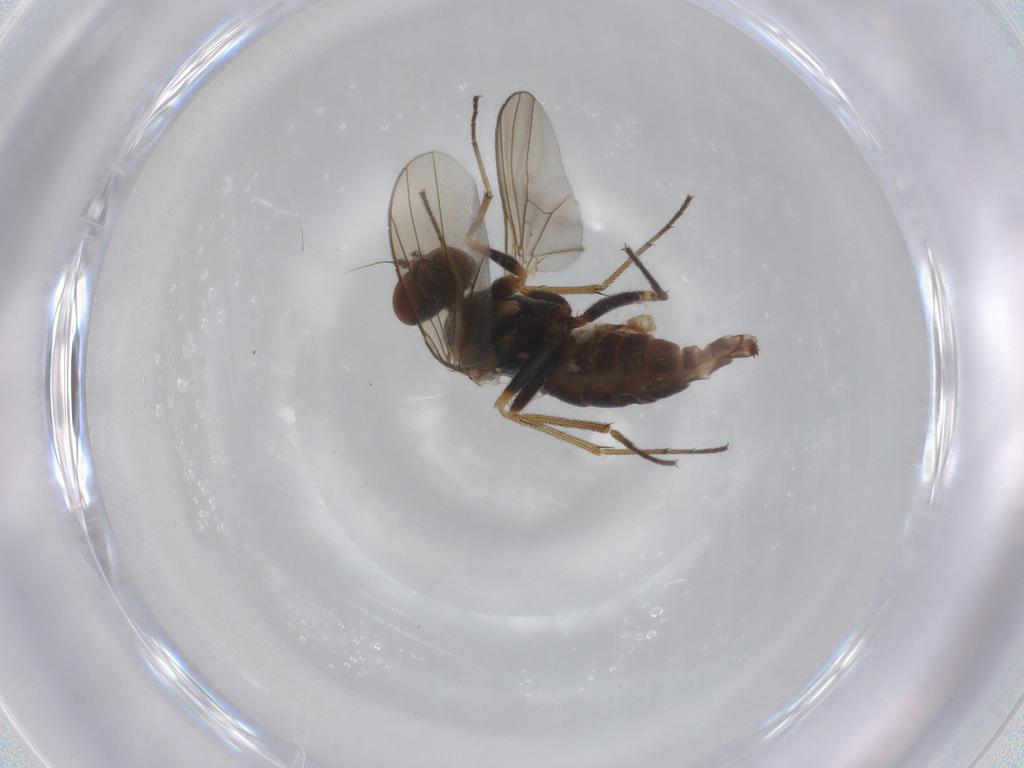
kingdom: Animalia
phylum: Arthropoda
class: Insecta
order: Diptera
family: Dolichopodidae
